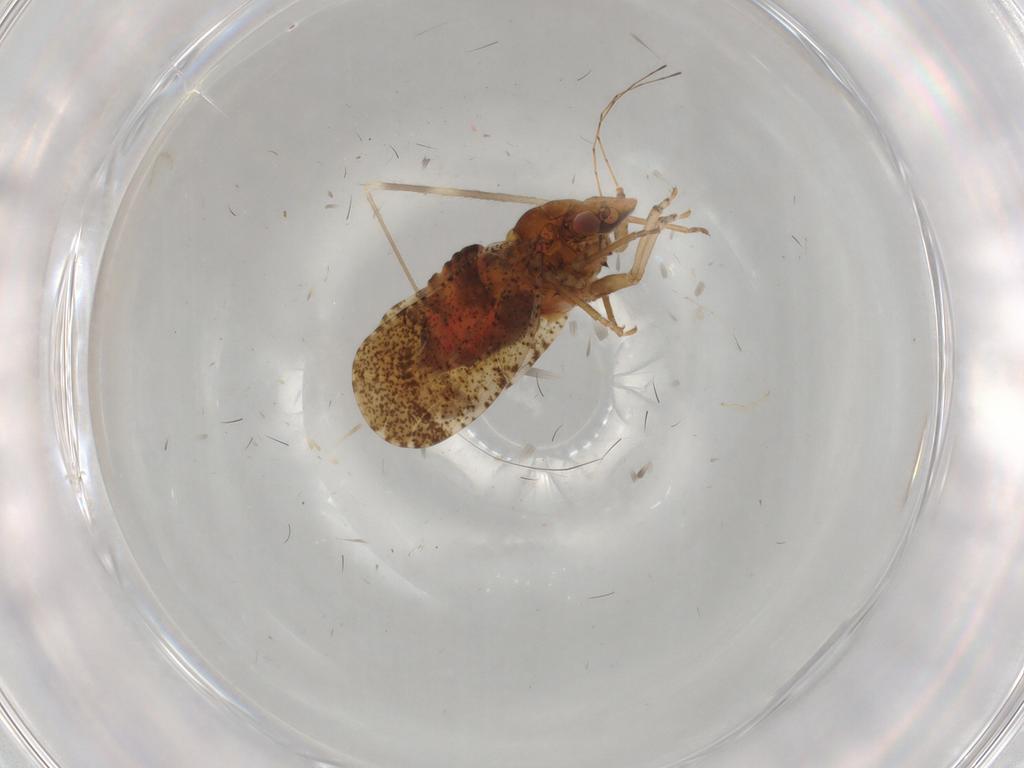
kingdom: Animalia
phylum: Arthropoda
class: Insecta
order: Hemiptera
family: Psyllidae
